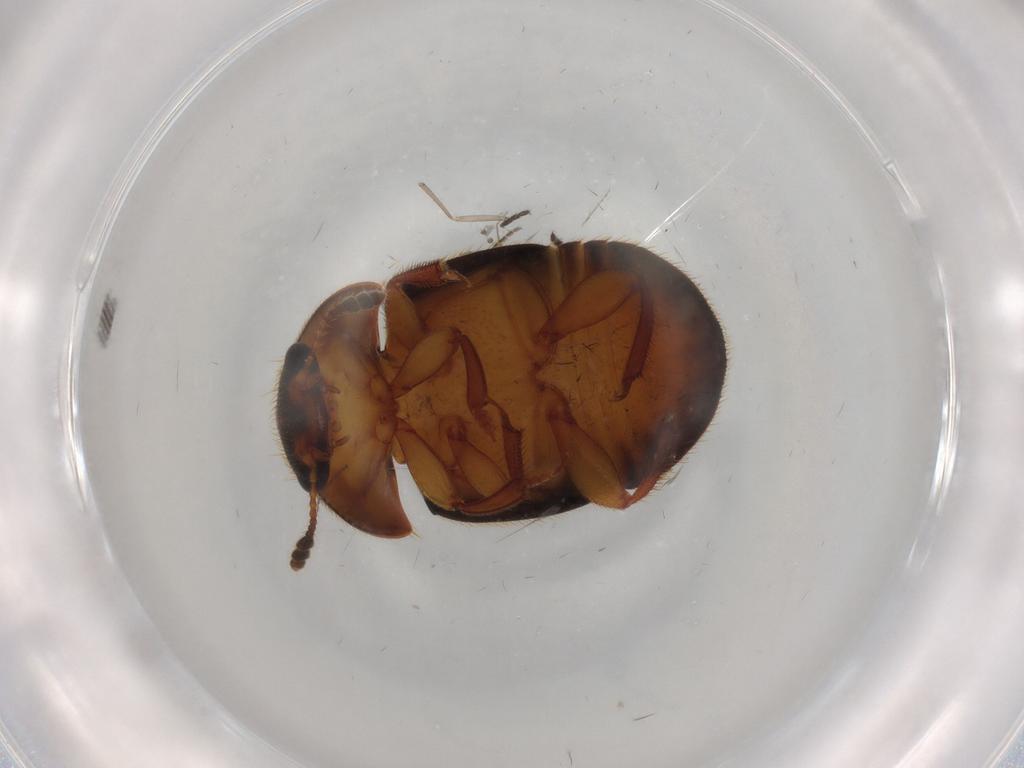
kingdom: Animalia
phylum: Arthropoda
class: Insecta
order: Coleoptera
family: Nitidulidae
